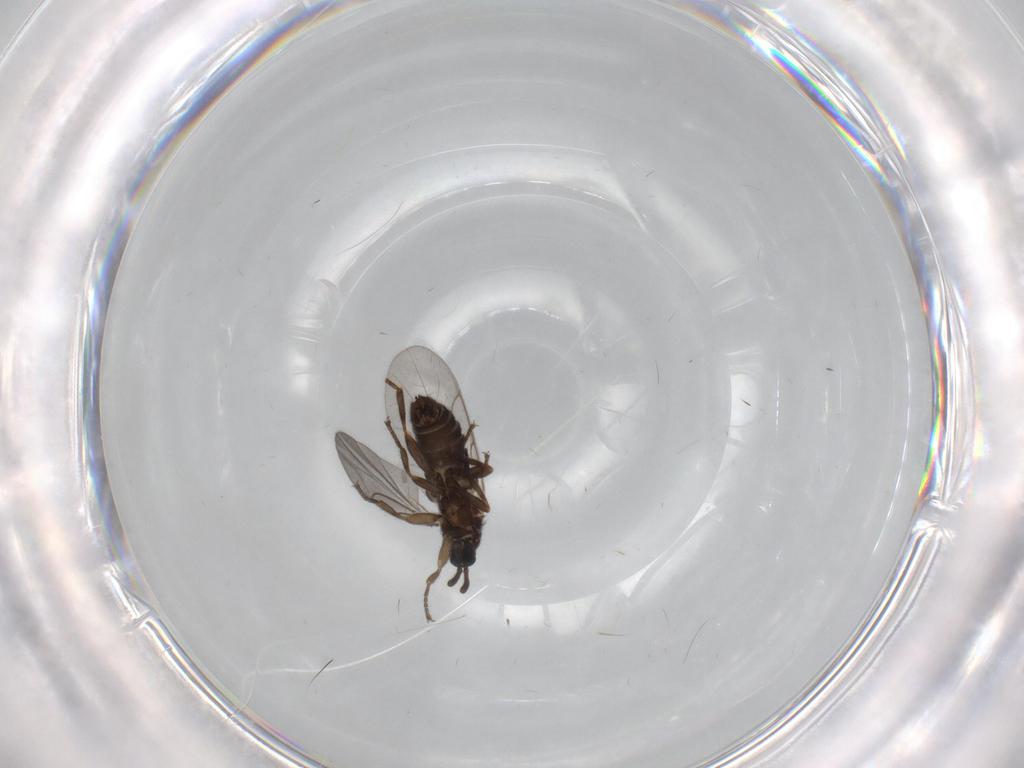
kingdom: Animalia
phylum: Arthropoda
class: Insecta
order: Diptera
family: Scatopsidae
